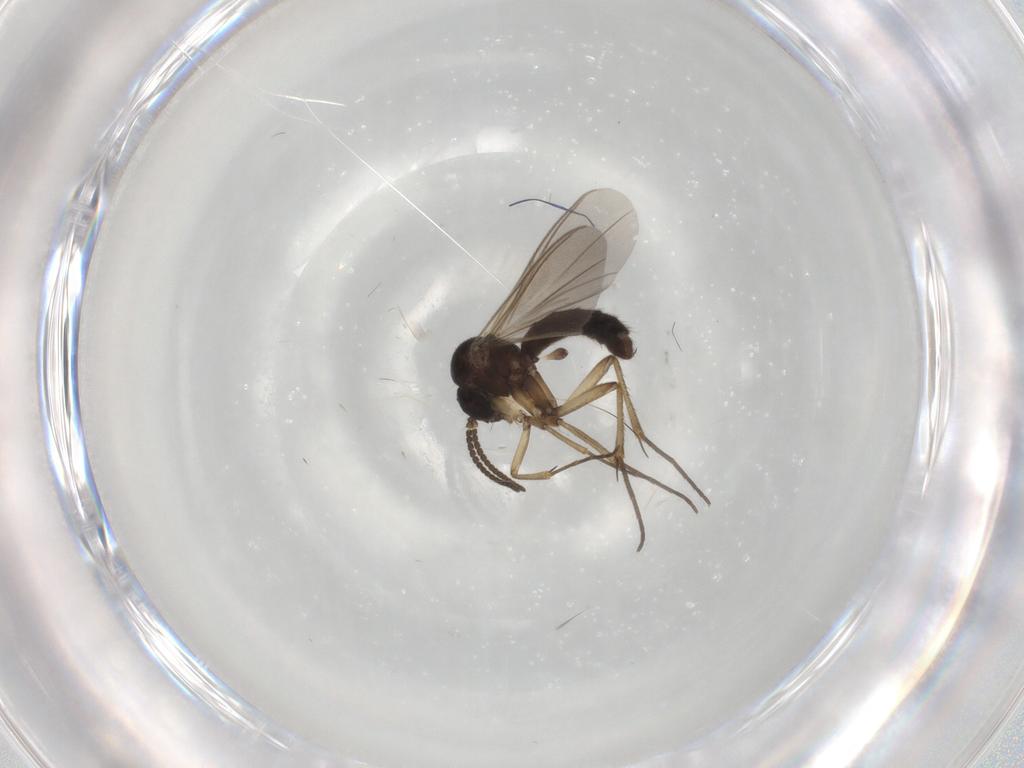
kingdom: Animalia
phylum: Arthropoda
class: Insecta
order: Diptera
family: Mycetophilidae
